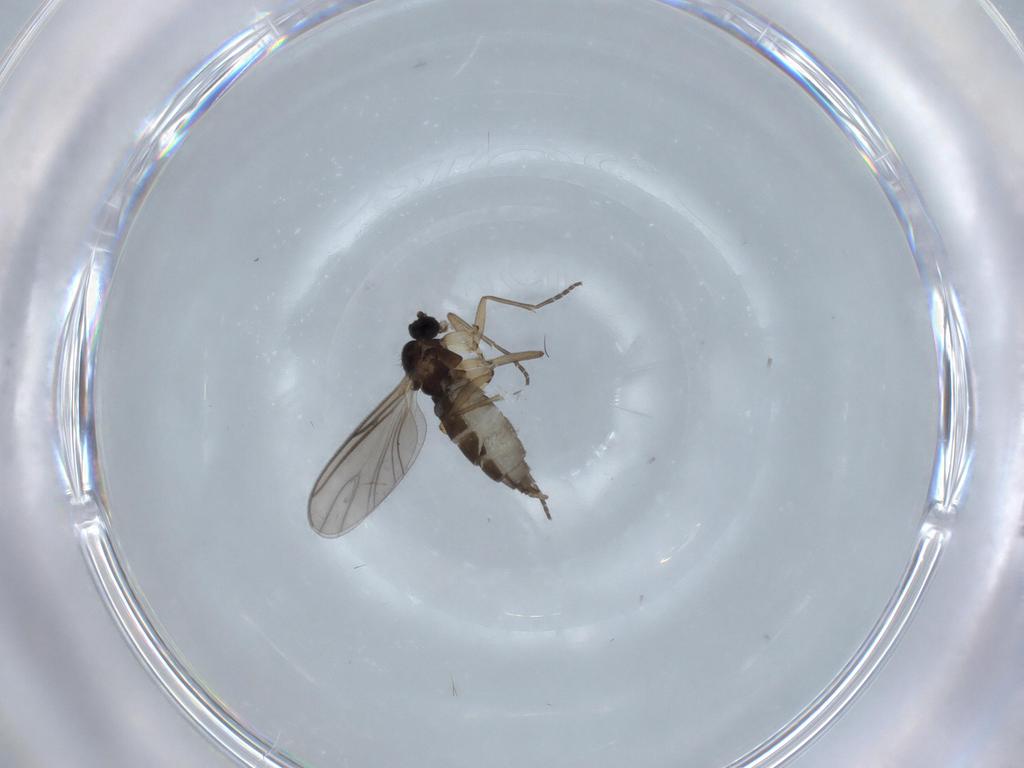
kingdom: Animalia
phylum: Arthropoda
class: Insecta
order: Diptera
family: Sciaridae
